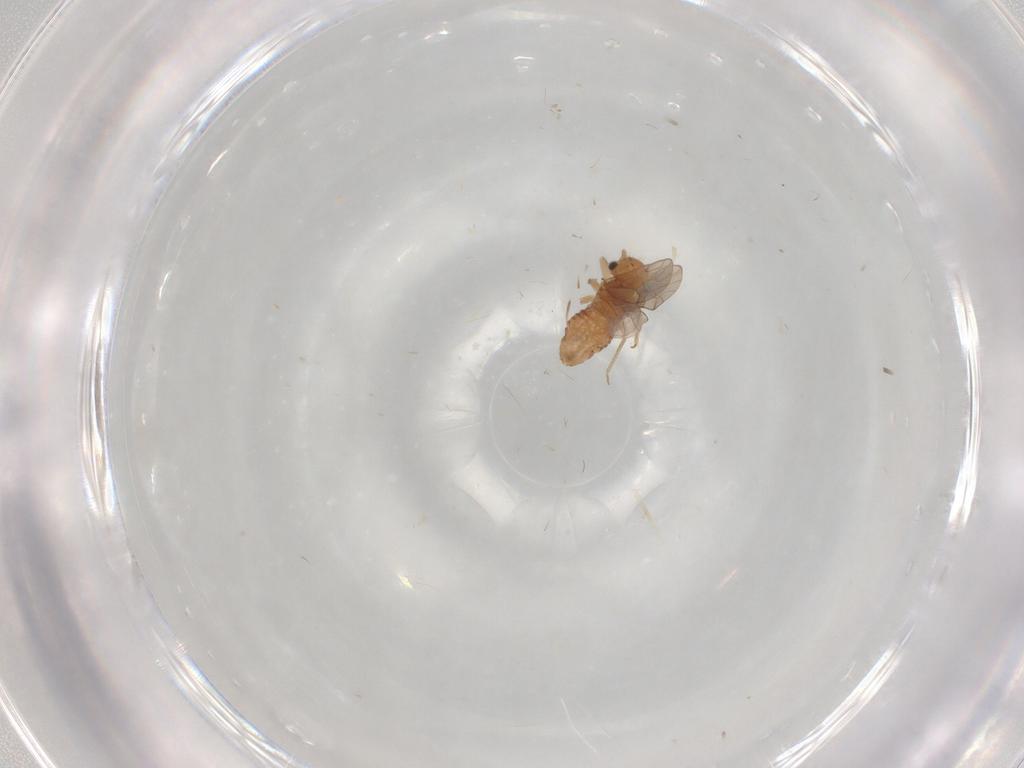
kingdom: Animalia
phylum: Arthropoda
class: Insecta
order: Psocodea
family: Ectopsocidae
